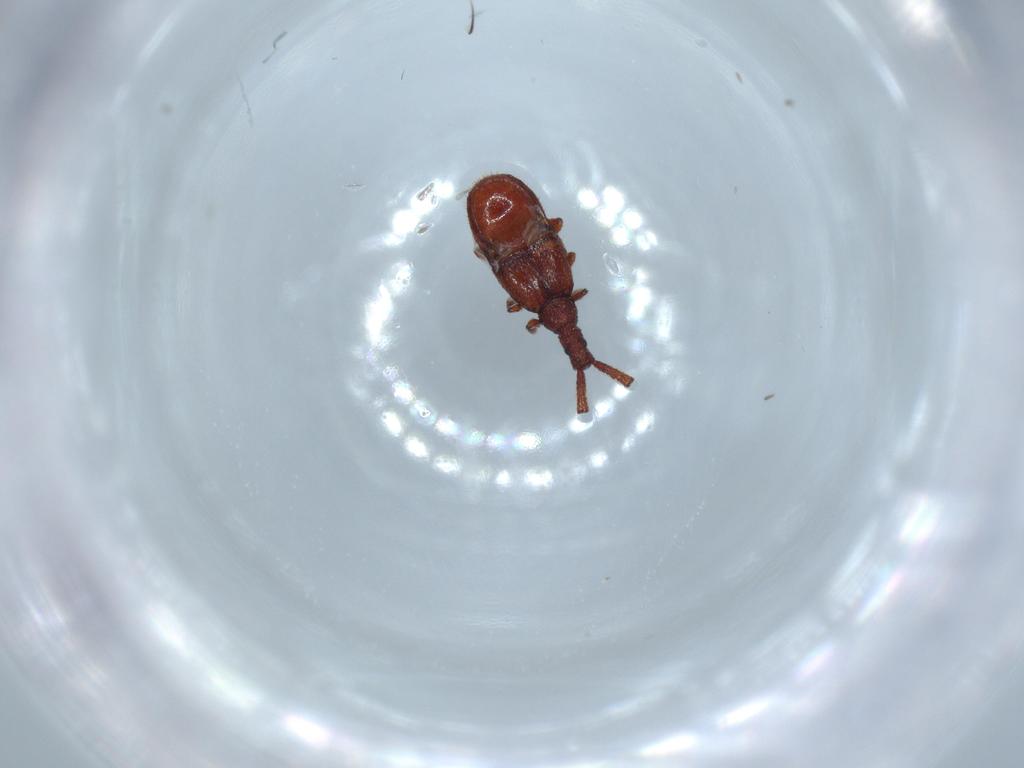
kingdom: Animalia
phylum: Arthropoda
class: Insecta
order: Coleoptera
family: Staphylinidae
